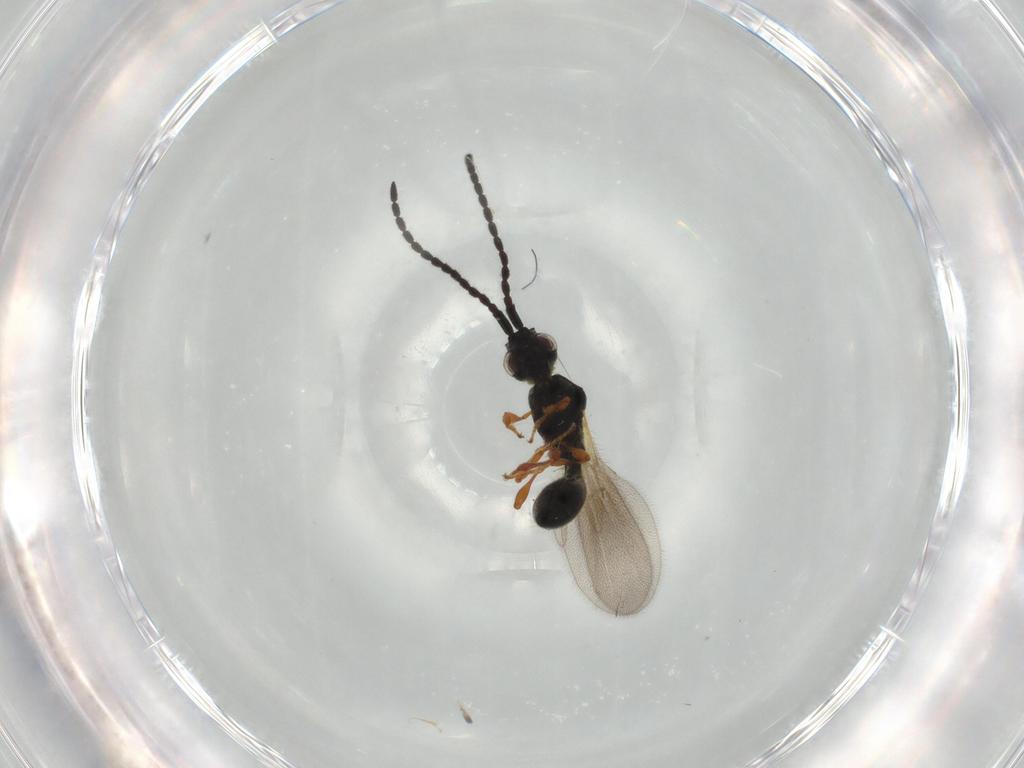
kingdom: Animalia
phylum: Arthropoda
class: Insecta
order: Hymenoptera
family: Diapriidae
